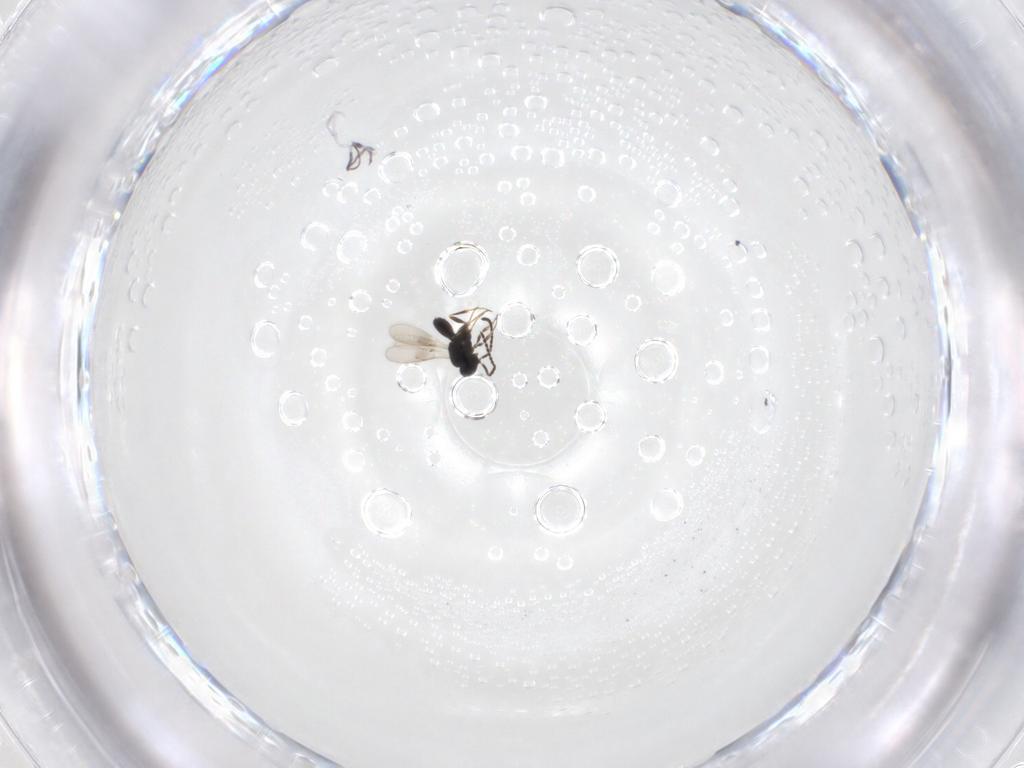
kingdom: Animalia
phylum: Arthropoda
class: Insecta
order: Hymenoptera
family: Scelionidae
